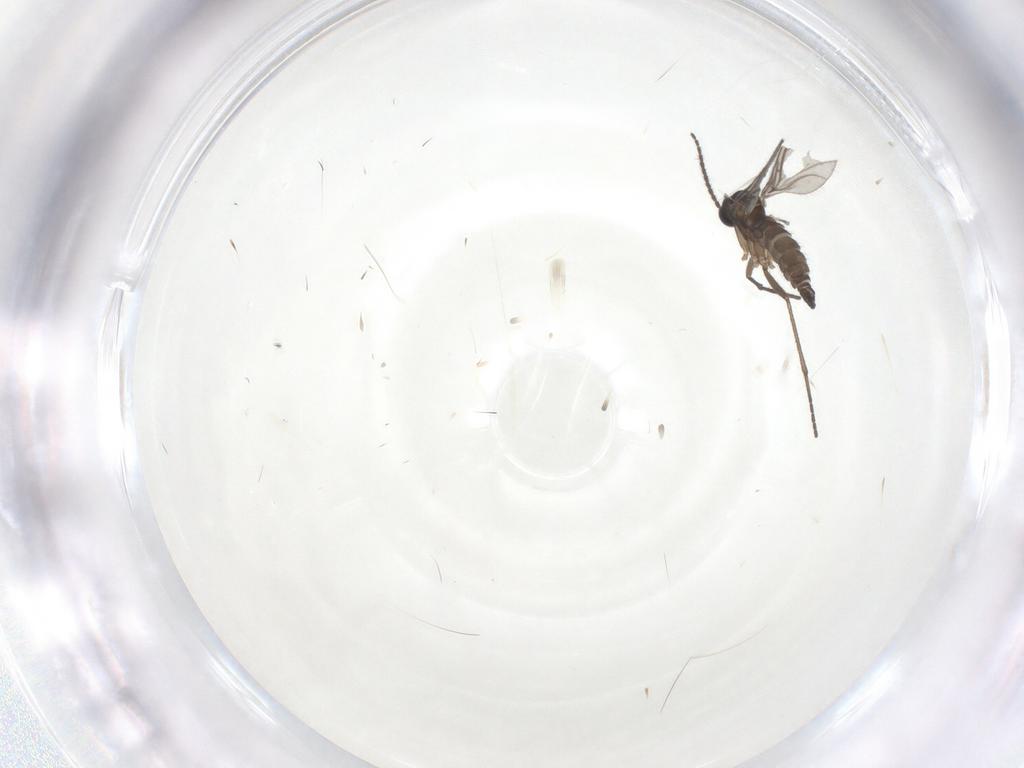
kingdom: Animalia
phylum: Arthropoda
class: Insecta
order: Diptera
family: Sciaridae
